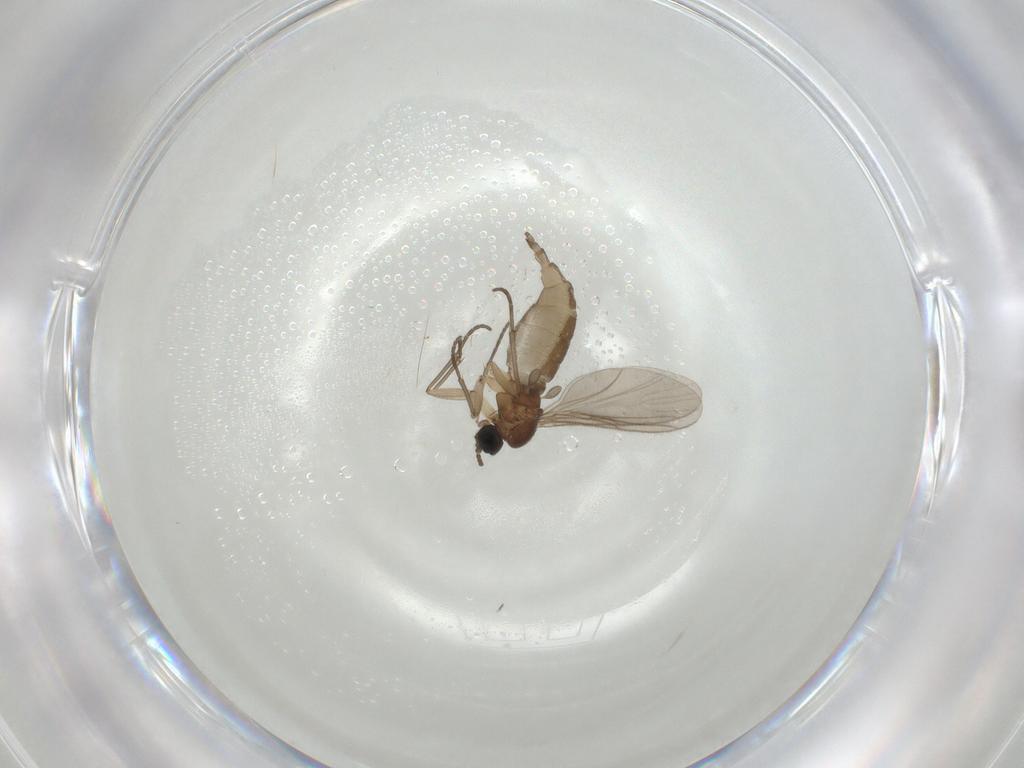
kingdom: Animalia
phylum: Arthropoda
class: Insecta
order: Diptera
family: Sciaridae
